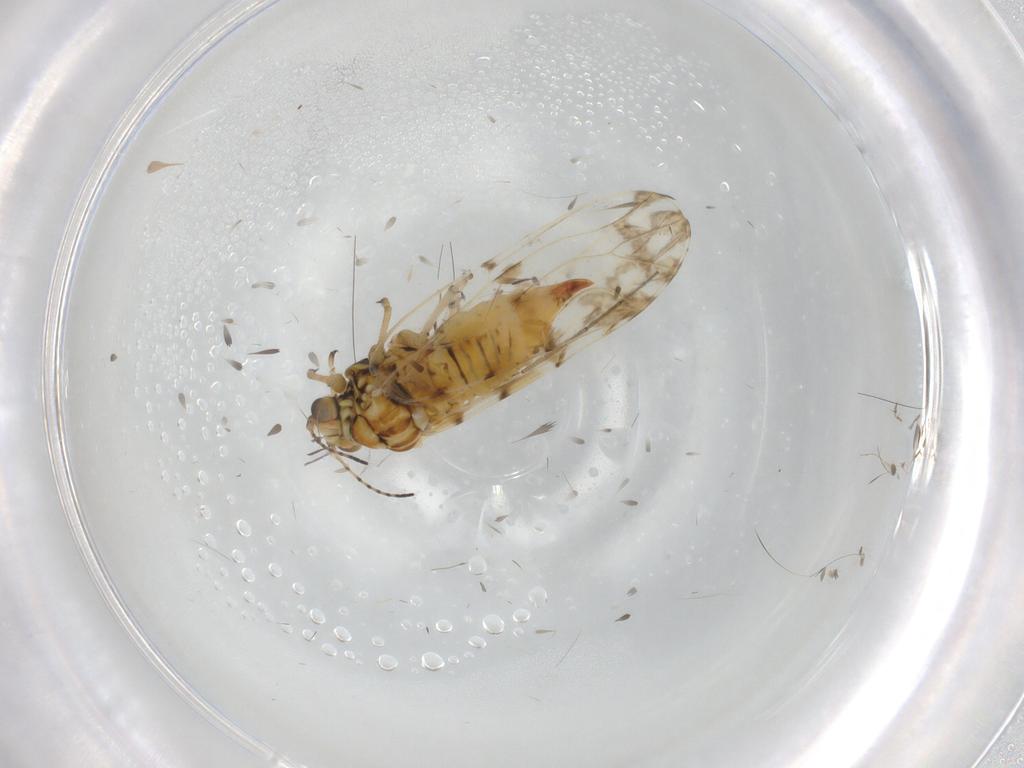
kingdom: Animalia
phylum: Arthropoda
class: Insecta
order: Hemiptera
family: Psylloidea_incertae_sedis
